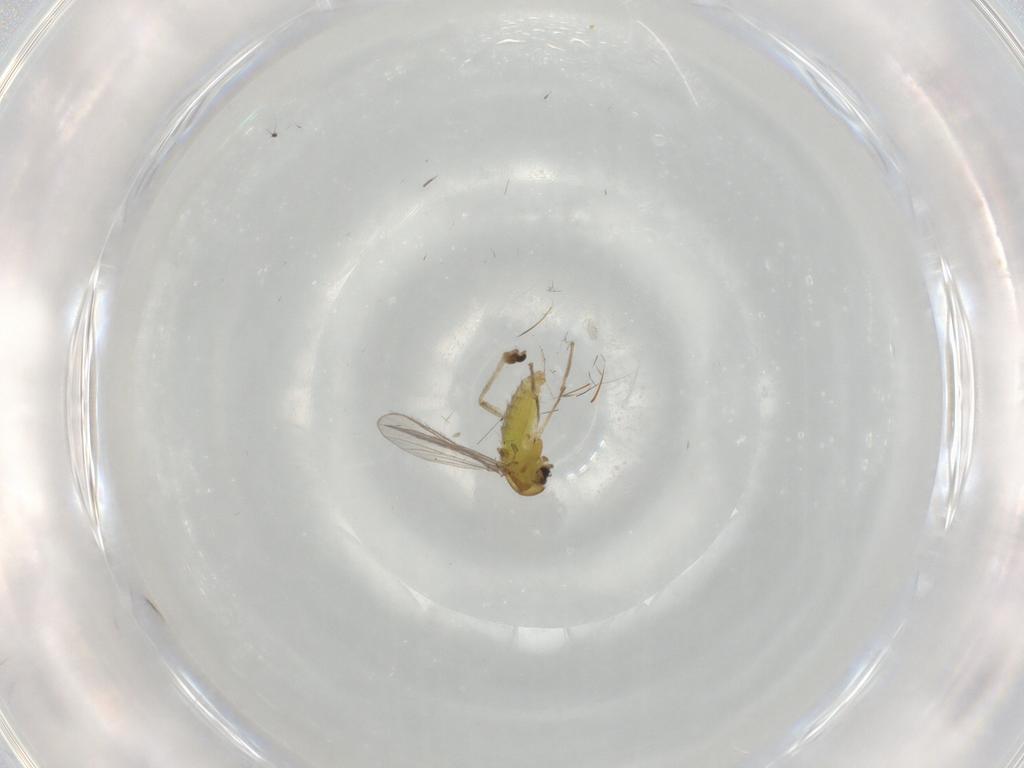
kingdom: Animalia
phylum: Arthropoda
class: Insecta
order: Diptera
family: Chironomidae
